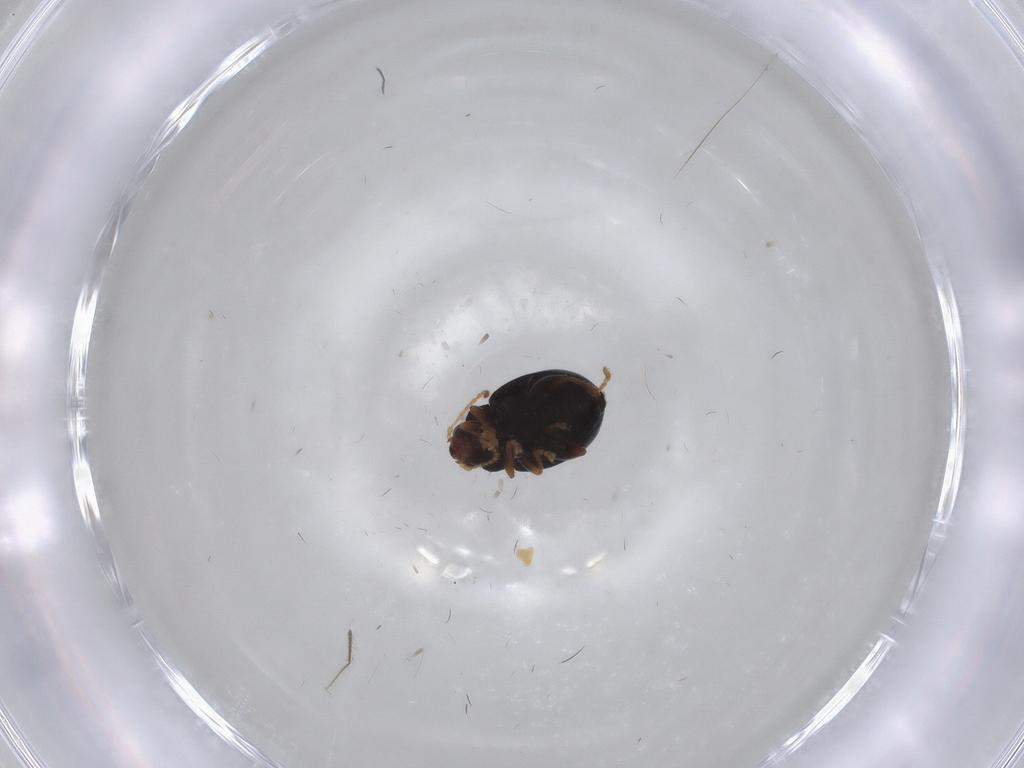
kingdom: Animalia
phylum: Arthropoda
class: Insecta
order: Coleoptera
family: Chrysomelidae
